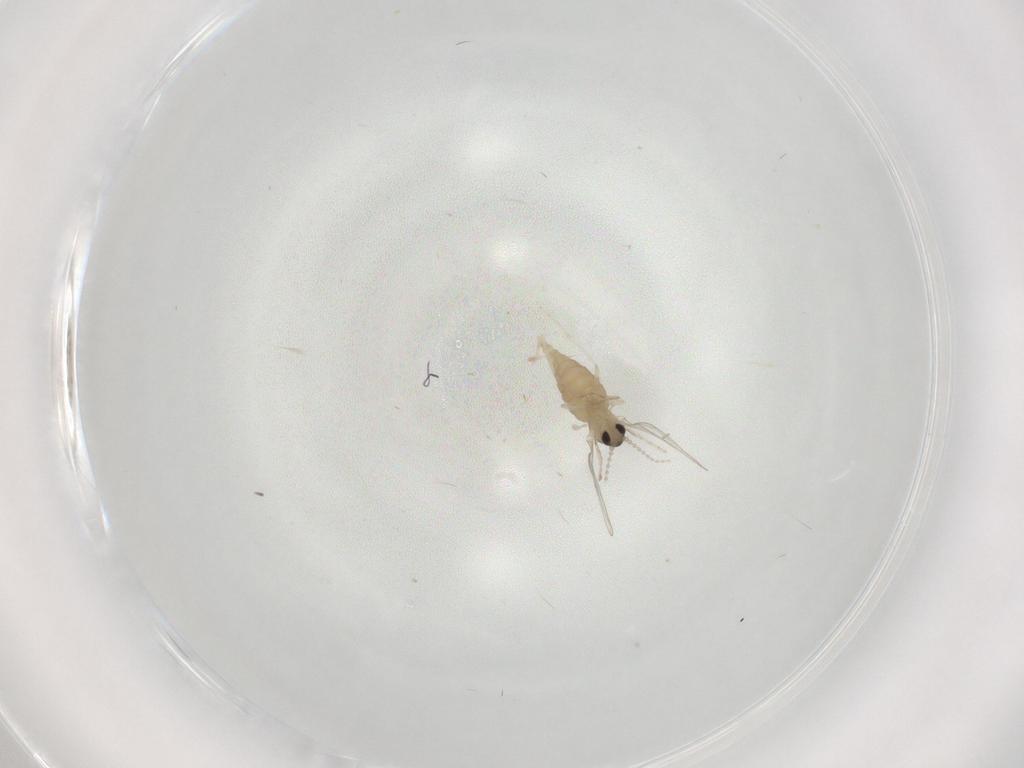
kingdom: Animalia
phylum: Arthropoda
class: Insecta
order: Diptera
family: Cecidomyiidae
